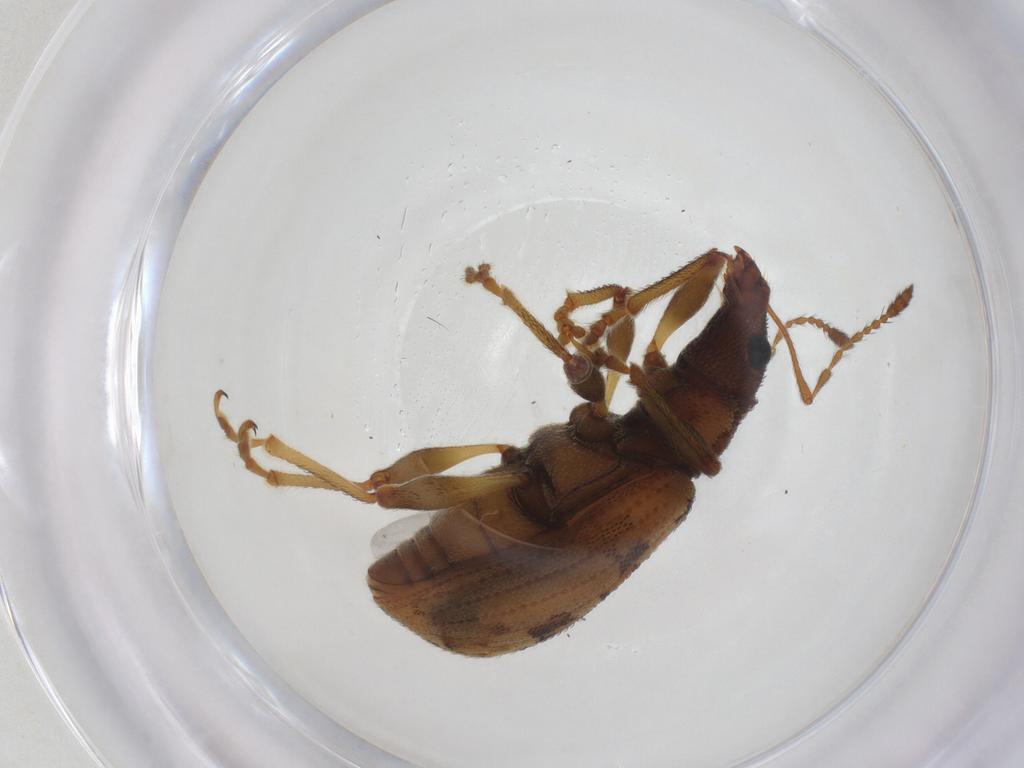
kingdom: Animalia
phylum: Arthropoda
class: Insecta
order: Coleoptera
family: Curculionidae
